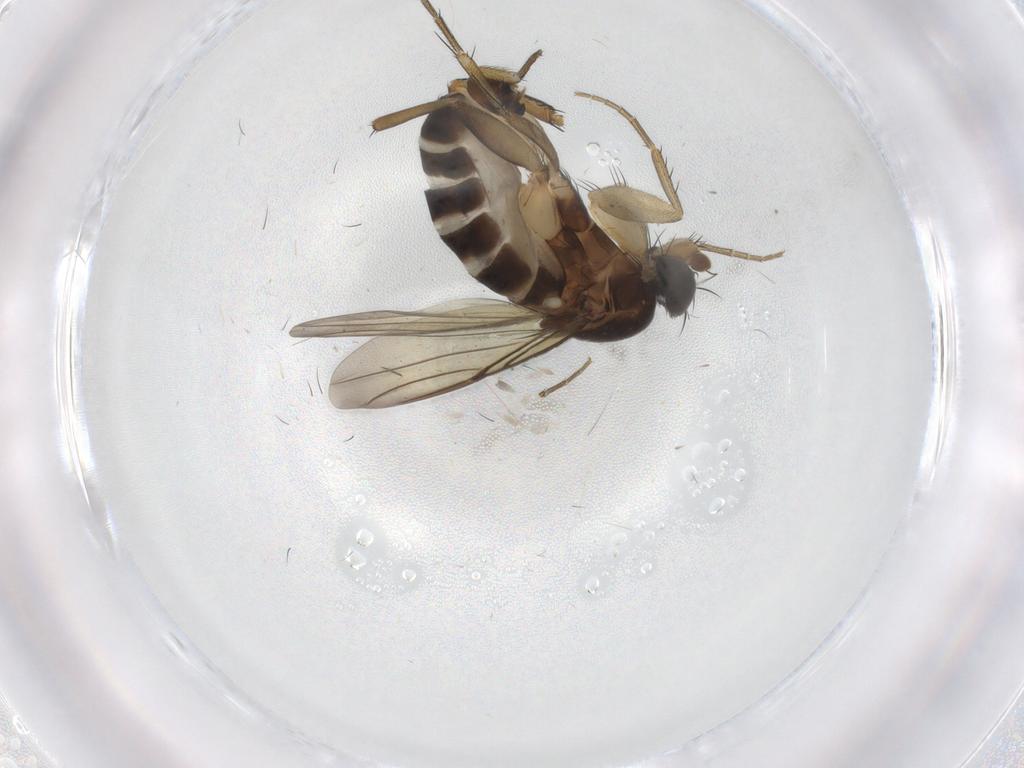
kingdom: Animalia
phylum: Arthropoda
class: Insecta
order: Diptera
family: Phoridae
